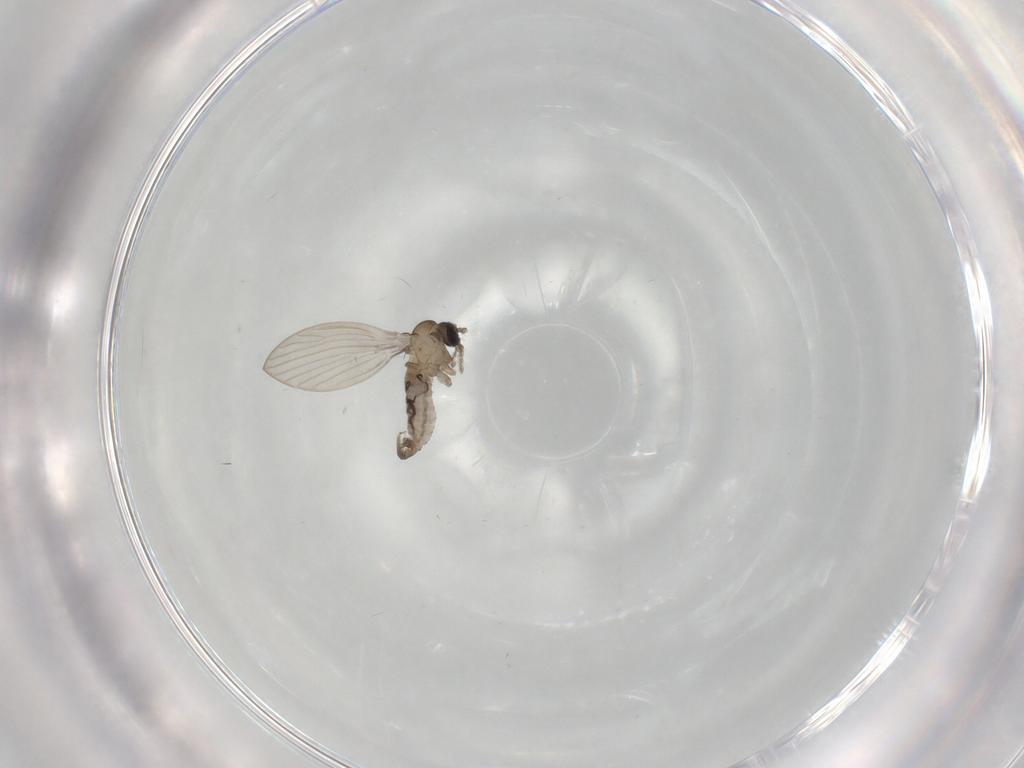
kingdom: Animalia
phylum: Arthropoda
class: Insecta
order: Diptera
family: Psychodidae
